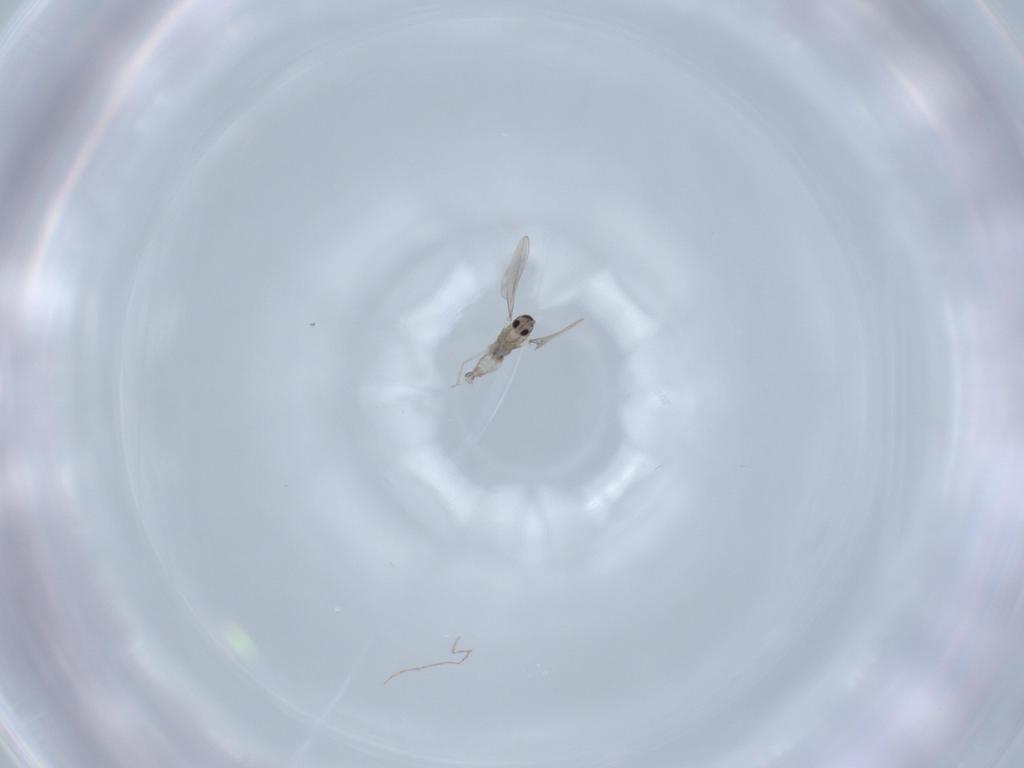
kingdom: Animalia
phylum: Arthropoda
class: Insecta
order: Diptera
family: Cecidomyiidae
